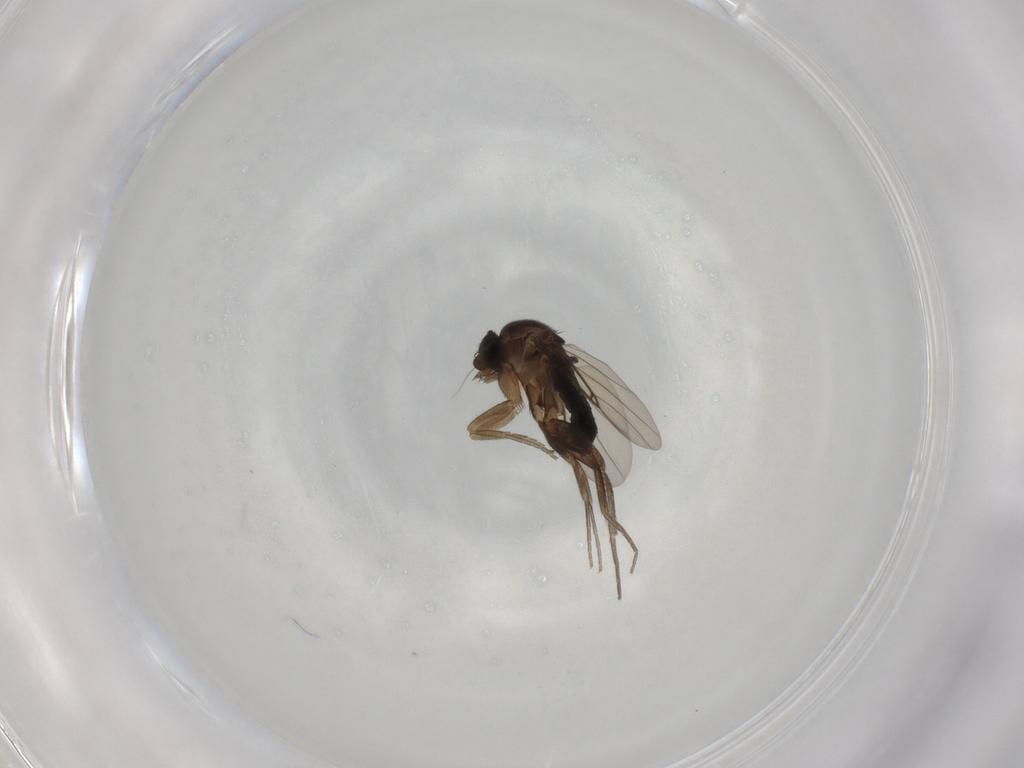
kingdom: Animalia
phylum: Arthropoda
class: Insecta
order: Diptera
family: Phoridae
